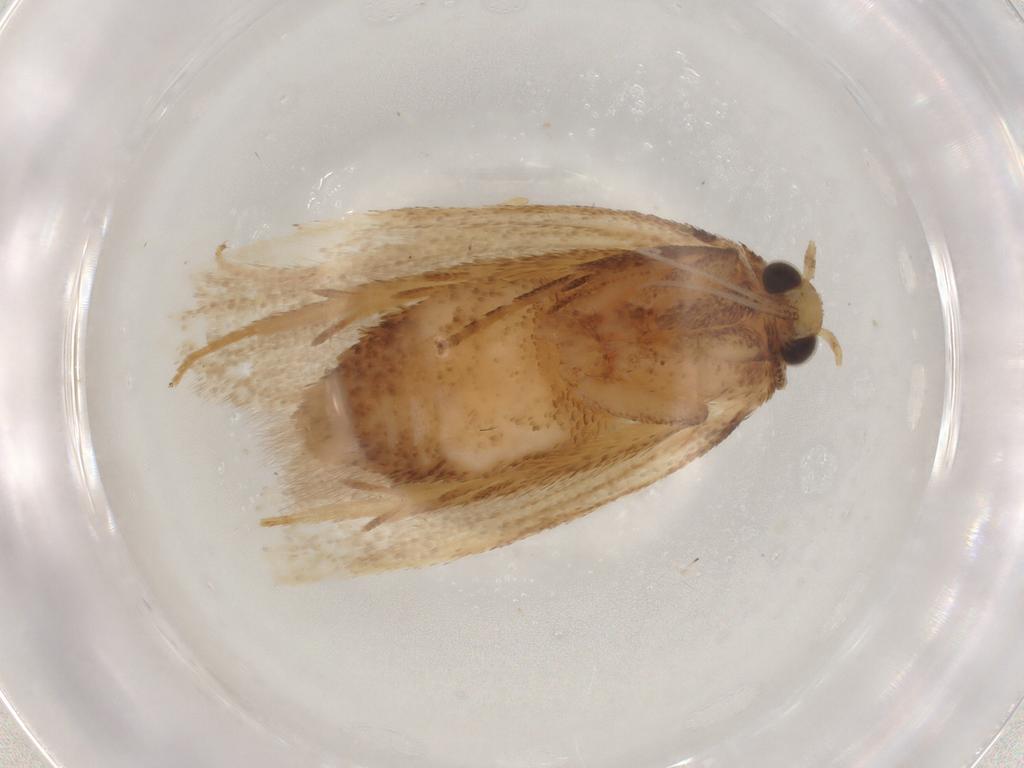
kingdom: Animalia
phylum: Arthropoda
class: Insecta
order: Lepidoptera
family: Autostichidae
